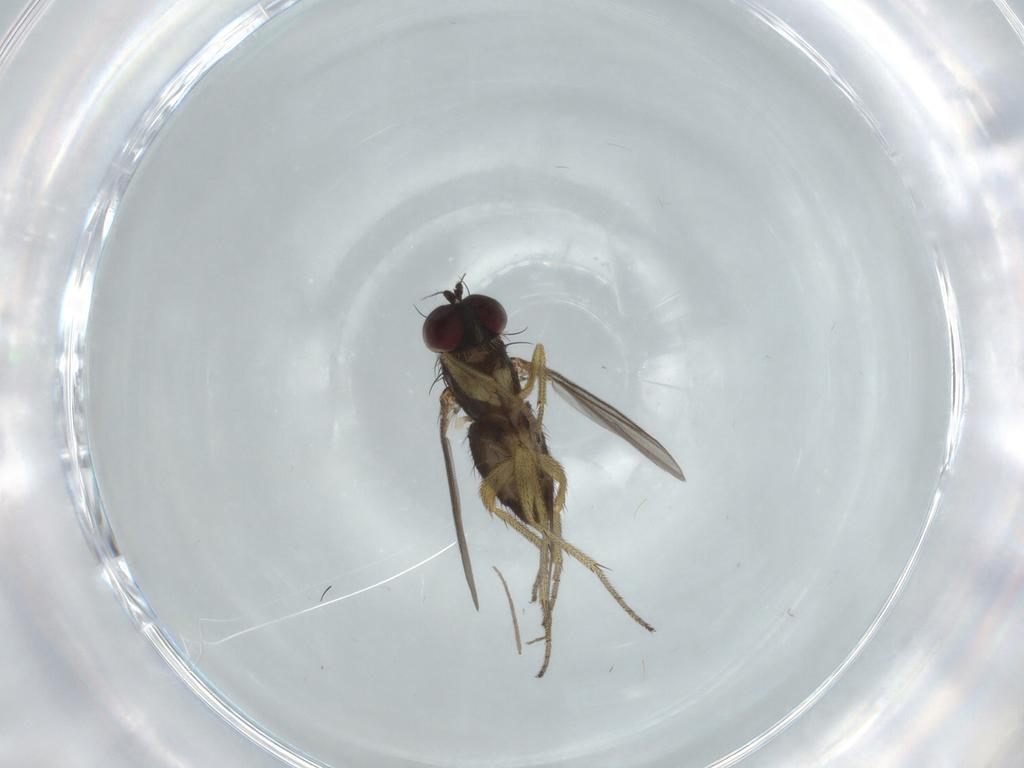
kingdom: Animalia
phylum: Arthropoda
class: Insecta
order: Diptera
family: Dolichopodidae
